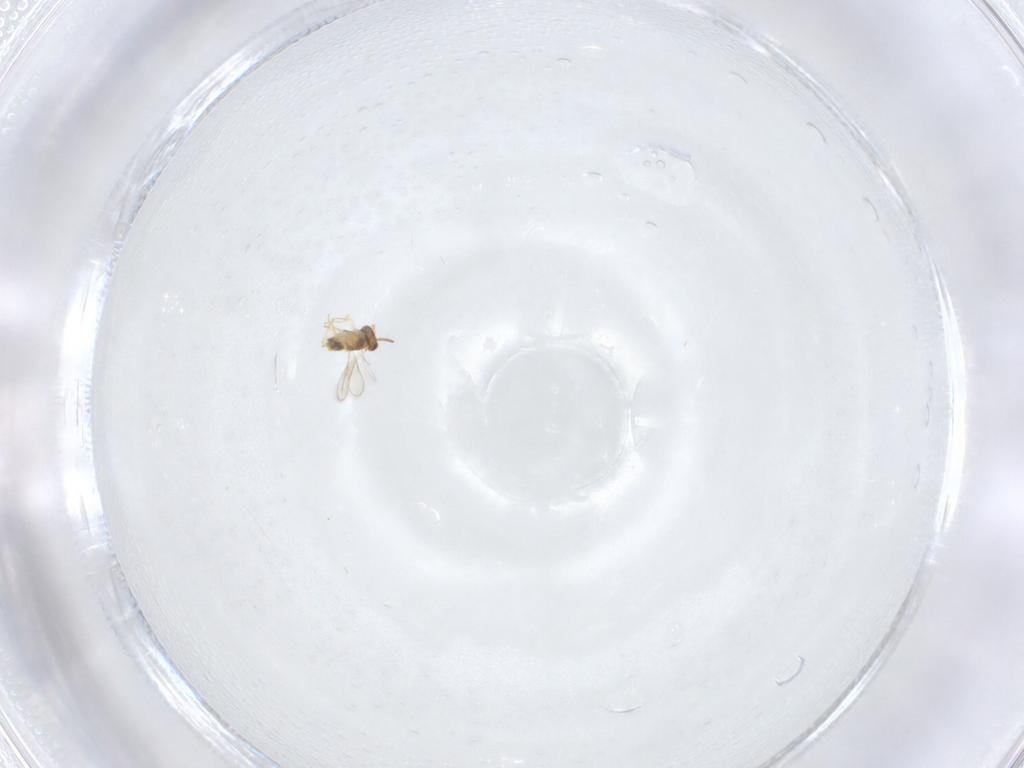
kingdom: Animalia
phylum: Arthropoda
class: Insecta
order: Hymenoptera
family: Aphelinidae
